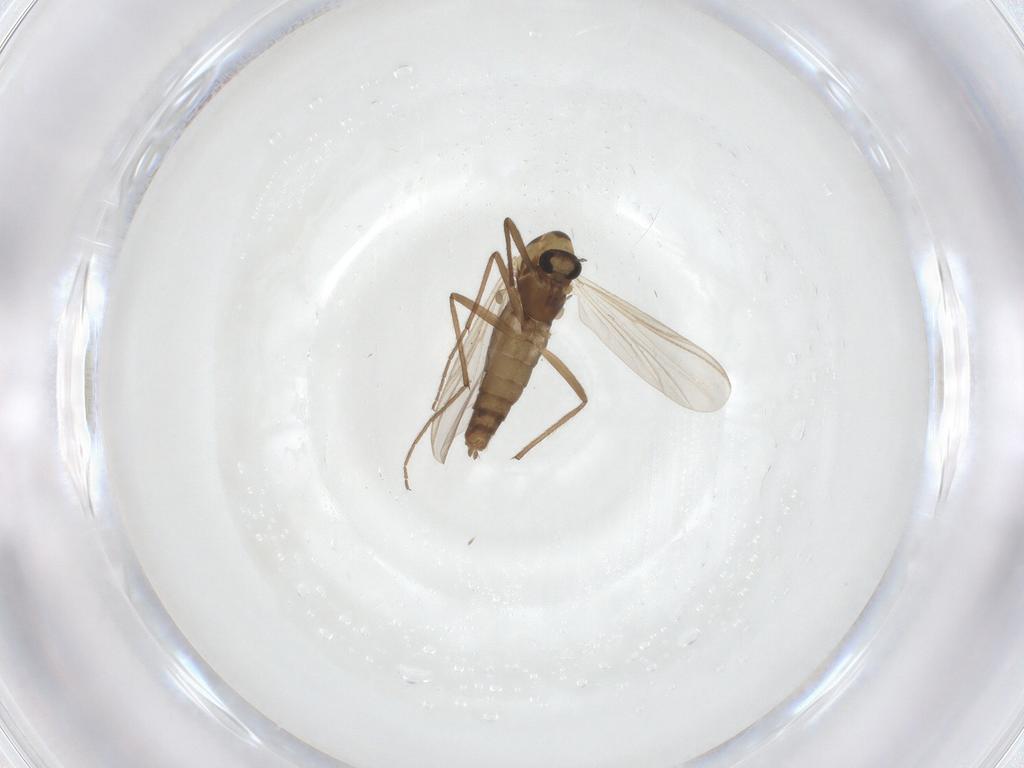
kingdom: Animalia
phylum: Arthropoda
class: Insecta
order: Diptera
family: Chironomidae
